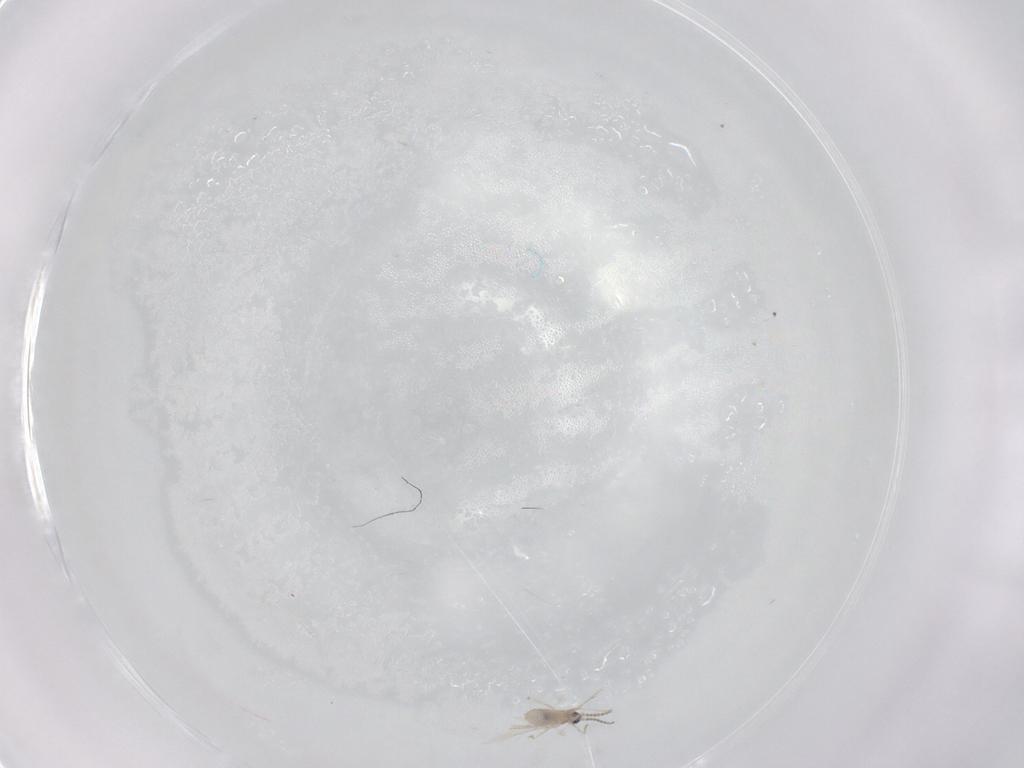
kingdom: Animalia
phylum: Arthropoda
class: Insecta
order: Diptera
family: Cecidomyiidae
